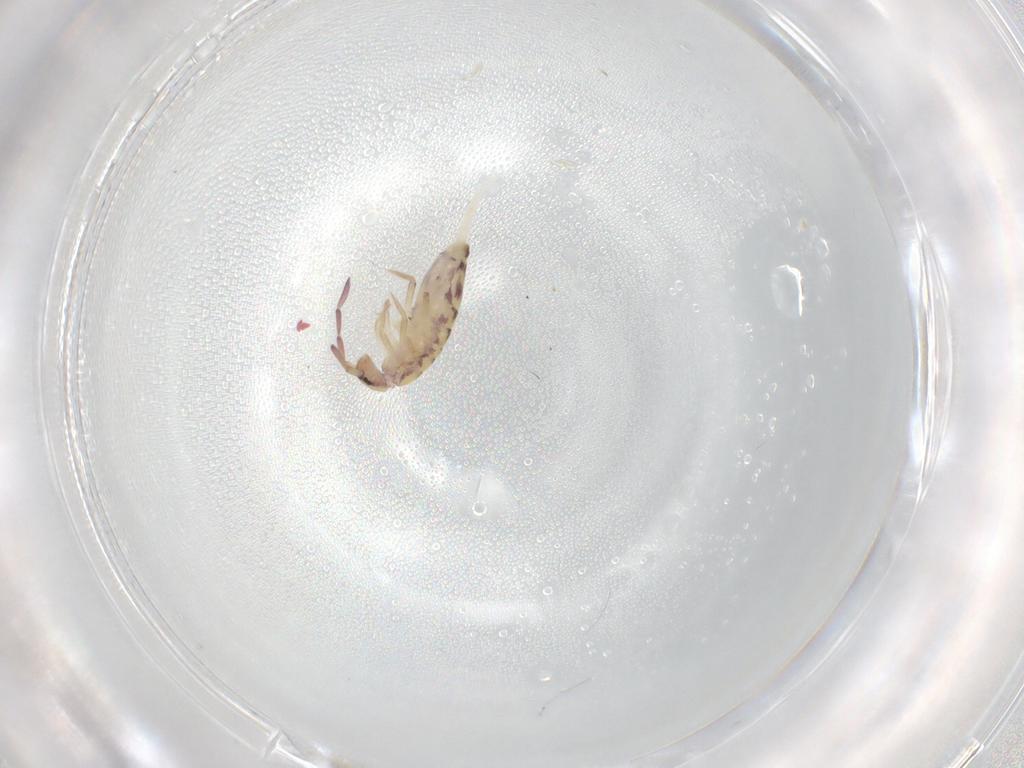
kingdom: Animalia
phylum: Arthropoda
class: Collembola
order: Entomobryomorpha
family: Entomobryidae
